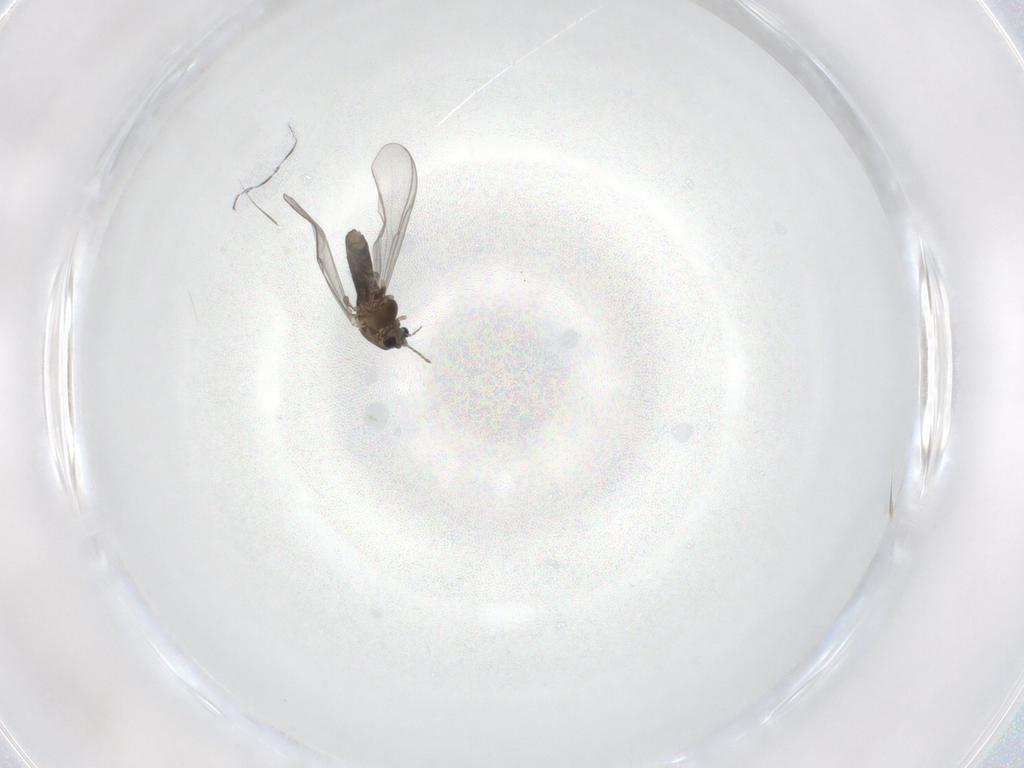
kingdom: Animalia
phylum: Arthropoda
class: Insecta
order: Diptera
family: Chironomidae
